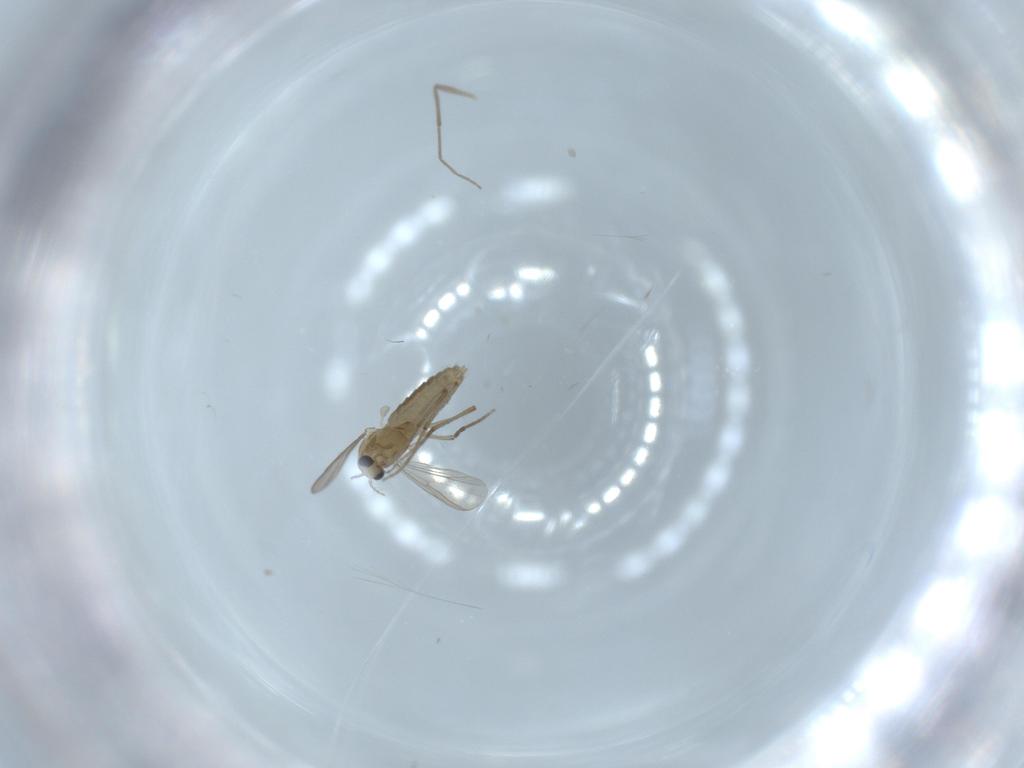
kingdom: Animalia
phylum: Arthropoda
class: Insecta
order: Diptera
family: Chironomidae
